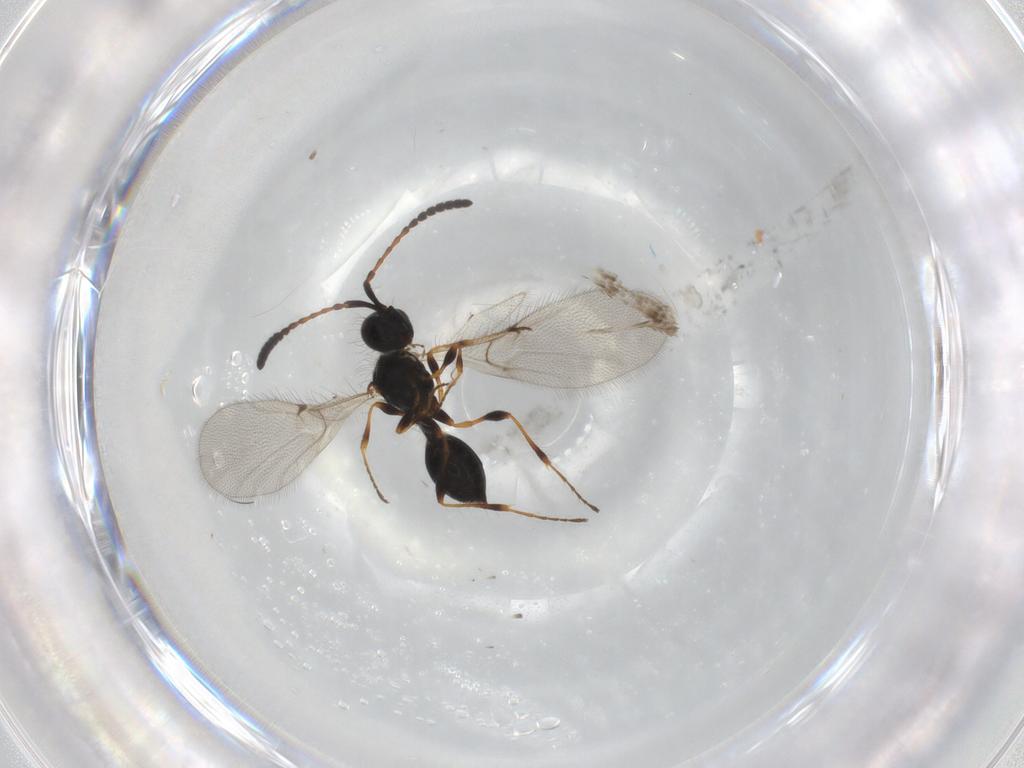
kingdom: Animalia
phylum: Arthropoda
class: Insecta
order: Hymenoptera
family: Diapriidae
